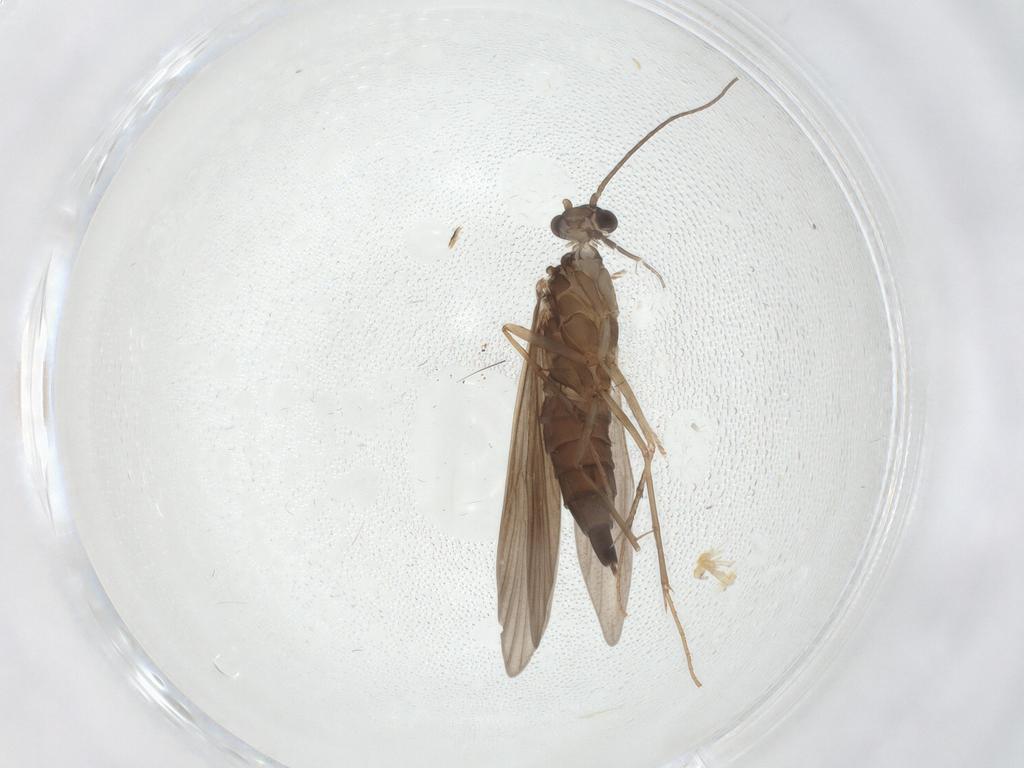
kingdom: Animalia
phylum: Arthropoda
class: Insecta
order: Trichoptera
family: Xiphocentronidae
